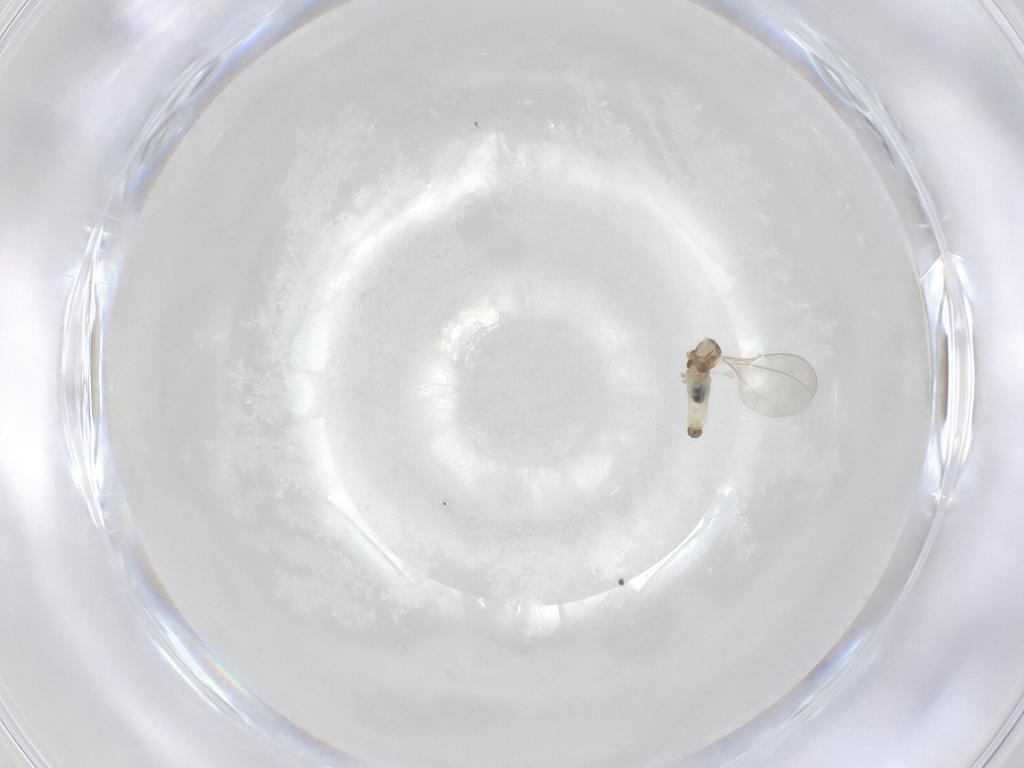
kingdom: Animalia
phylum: Arthropoda
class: Insecta
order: Diptera
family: Cecidomyiidae
